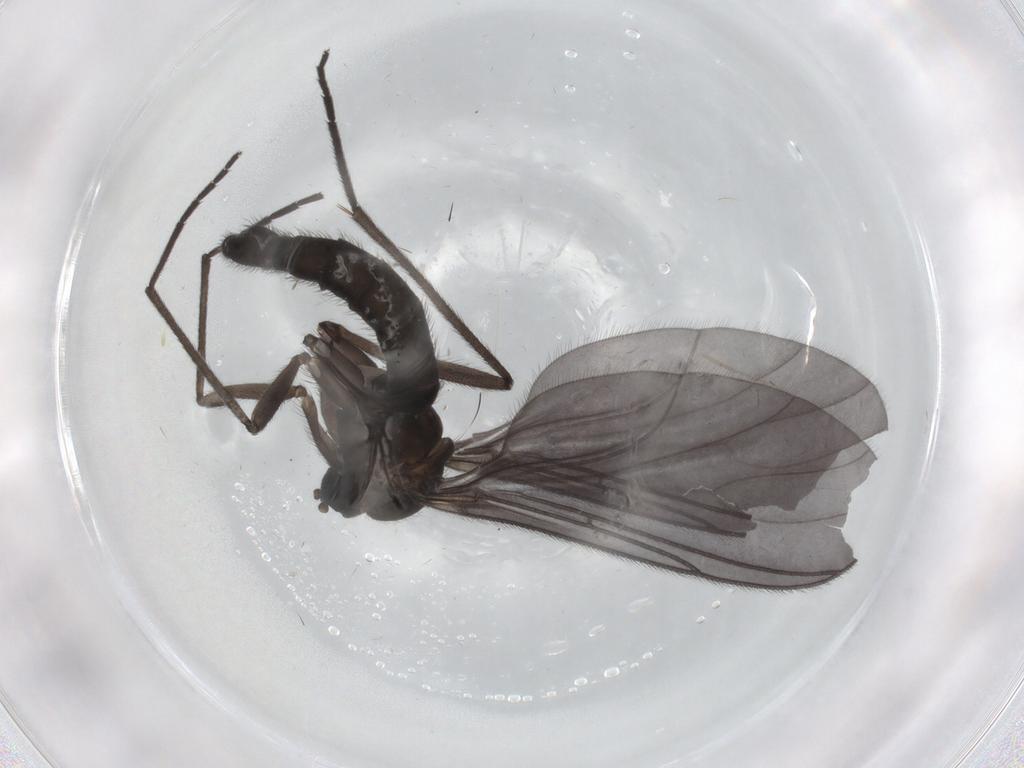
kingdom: Animalia
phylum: Arthropoda
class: Insecta
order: Diptera
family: Sciaridae
